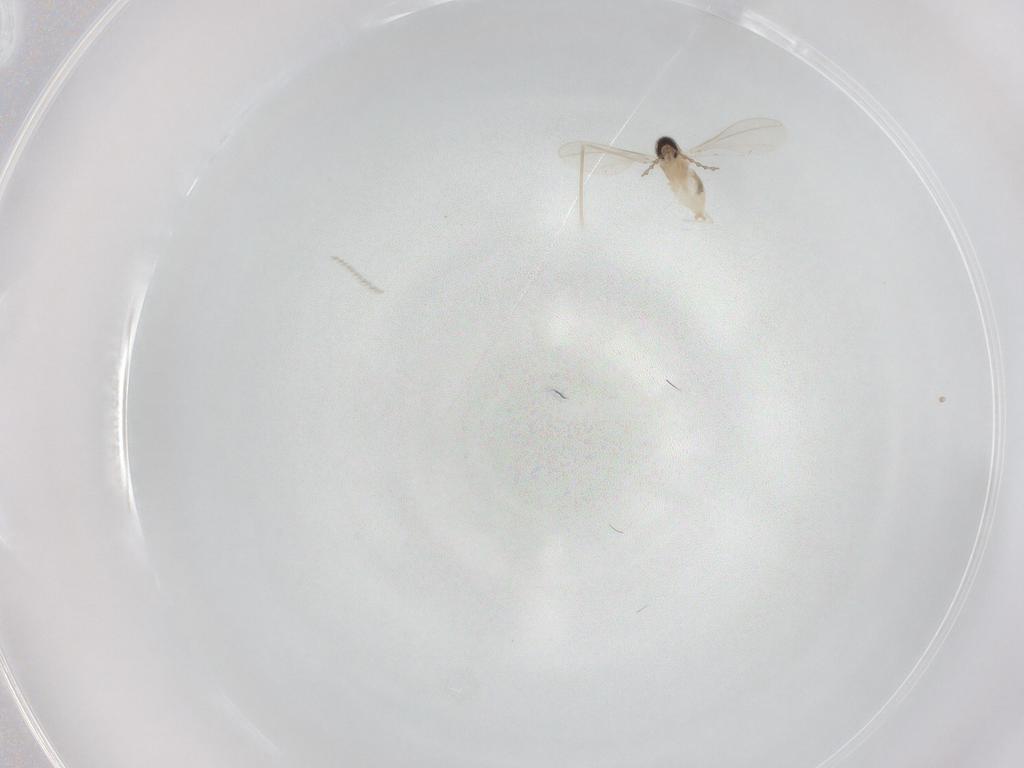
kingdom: Animalia
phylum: Arthropoda
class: Insecta
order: Diptera
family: Cecidomyiidae
